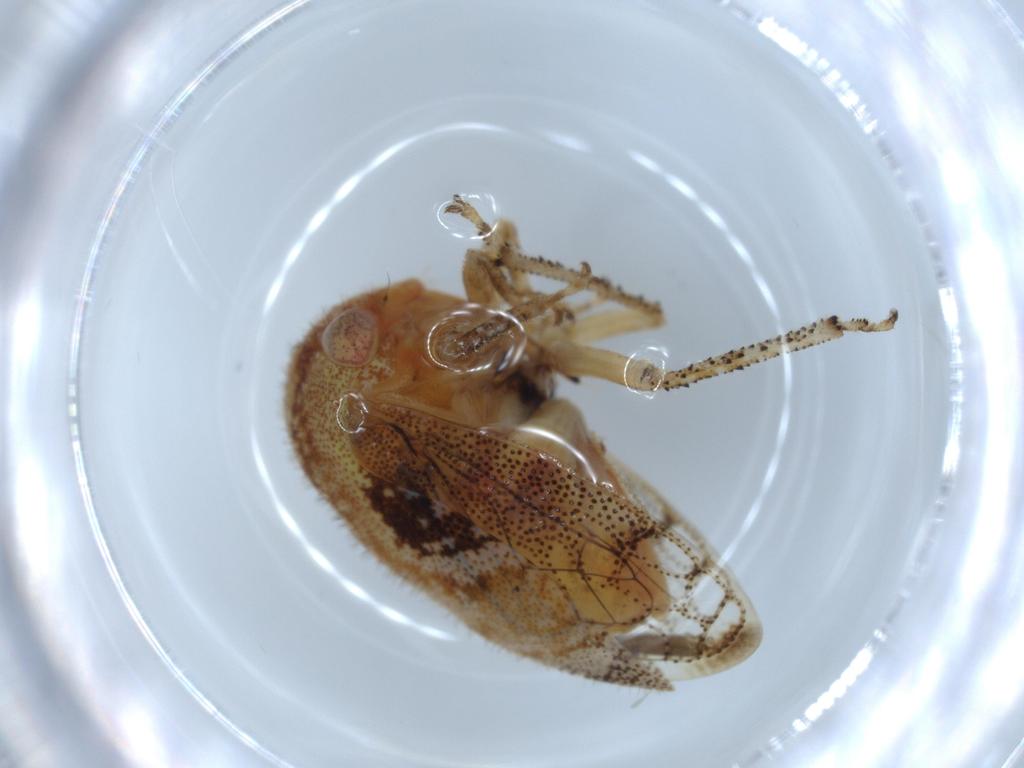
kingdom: Animalia
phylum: Arthropoda
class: Insecta
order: Hemiptera
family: Membracidae
